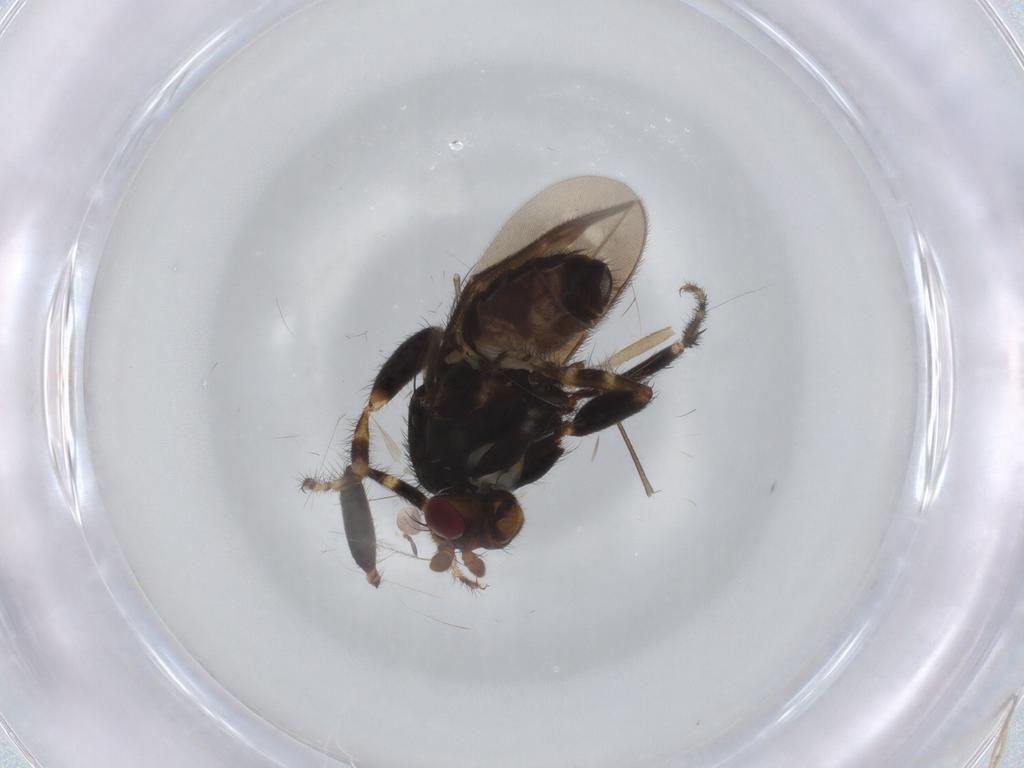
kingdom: Animalia
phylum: Arthropoda
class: Insecta
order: Diptera
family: Sphaeroceridae
